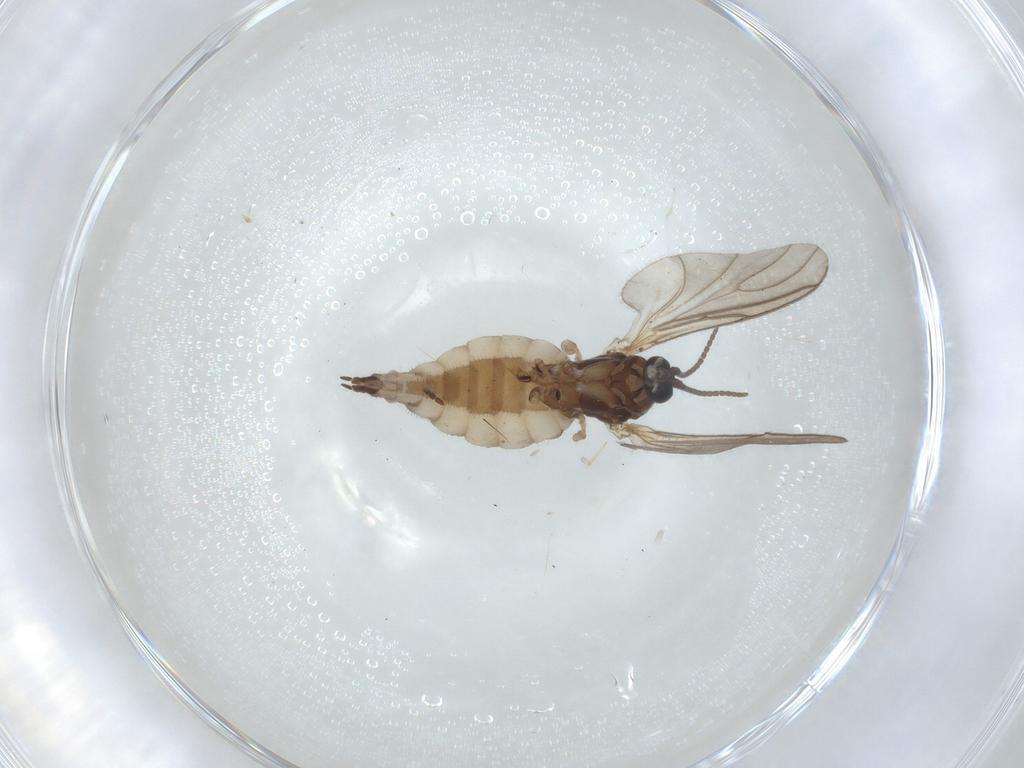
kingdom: Animalia
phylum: Arthropoda
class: Insecta
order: Diptera
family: Sciaridae
